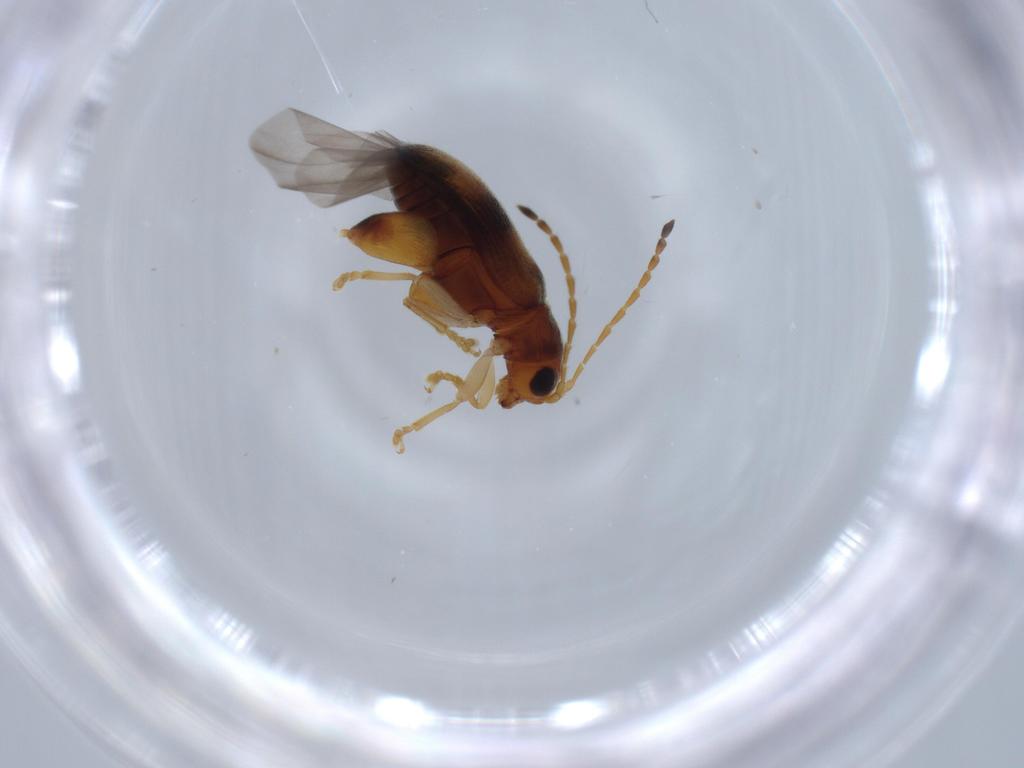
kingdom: Animalia
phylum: Arthropoda
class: Insecta
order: Coleoptera
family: Chrysomelidae
